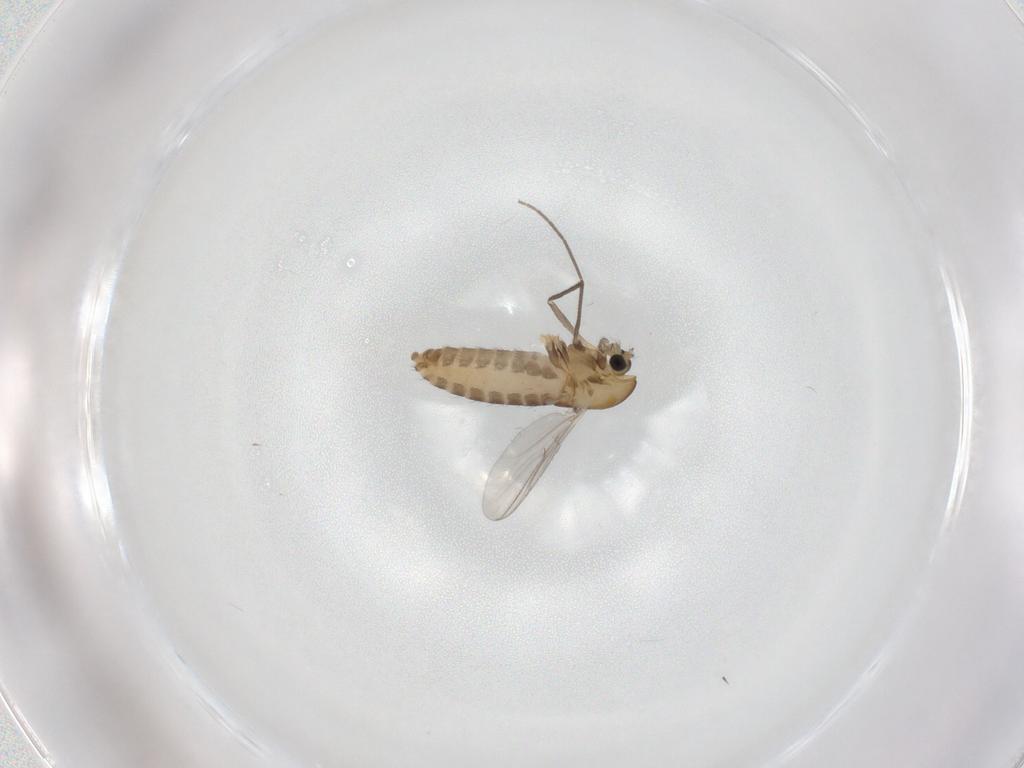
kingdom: Animalia
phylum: Arthropoda
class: Insecta
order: Diptera
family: Chironomidae
